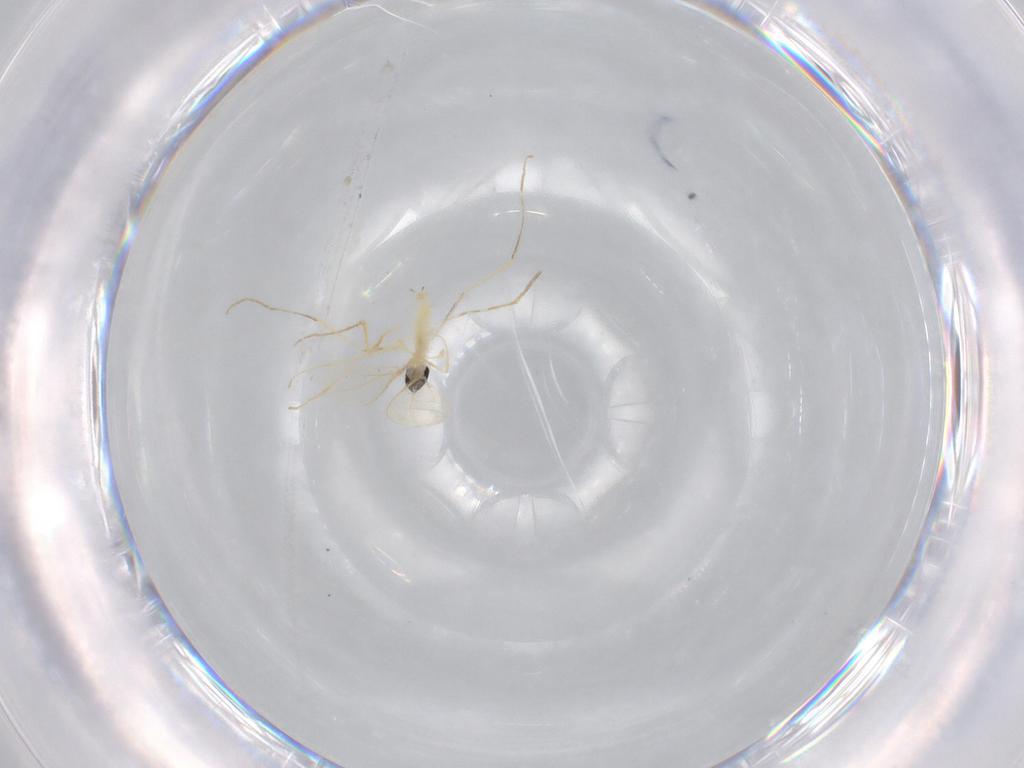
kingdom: Animalia
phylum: Arthropoda
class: Insecta
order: Diptera
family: Cecidomyiidae
